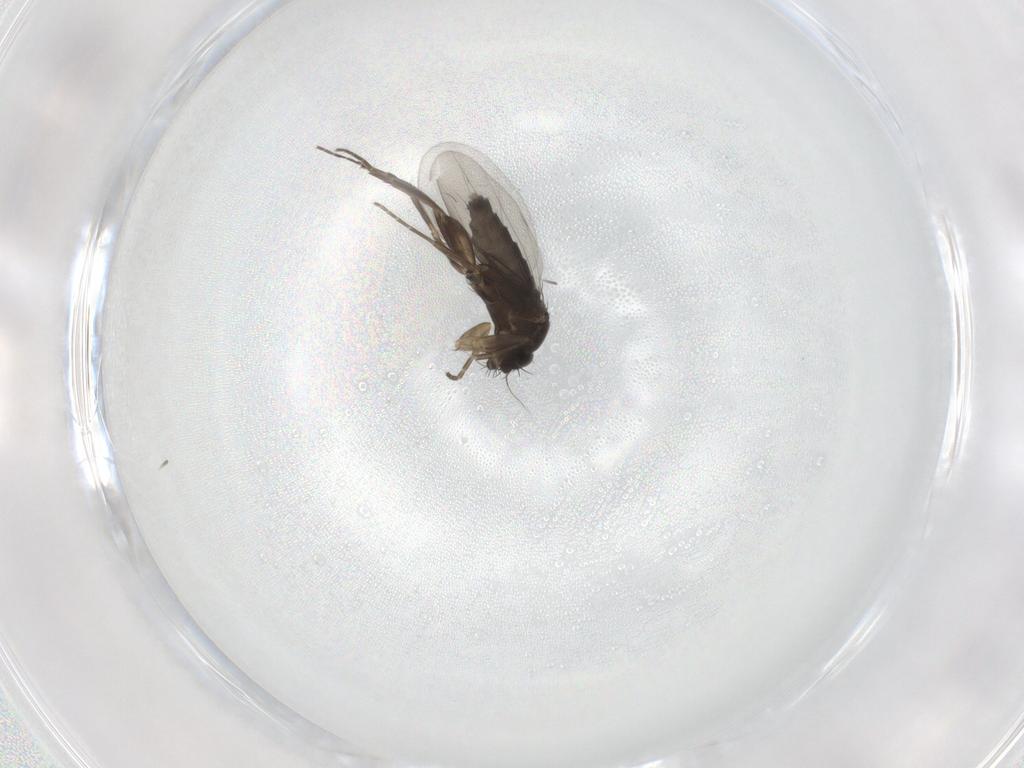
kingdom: Animalia
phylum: Arthropoda
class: Insecta
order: Diptera
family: Phoridae
